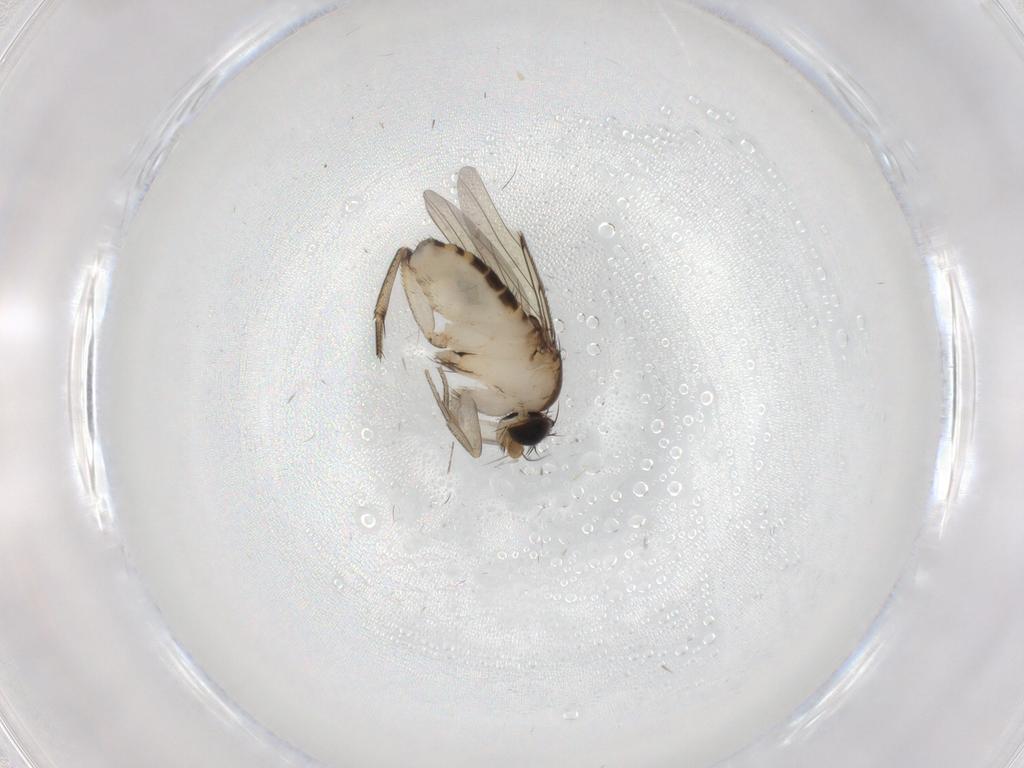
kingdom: Animalia
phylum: Arthropoda
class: Insecta
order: Diptera
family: Phoridae
